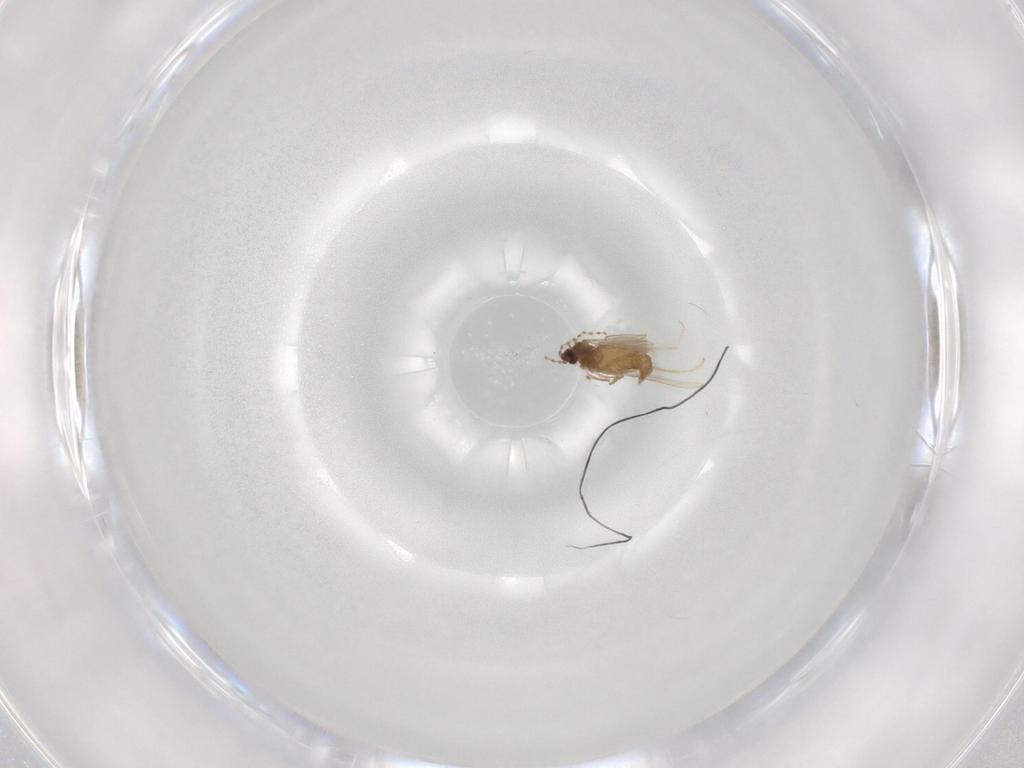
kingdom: Animalia
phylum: Arthropoda
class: Insecta
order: Diptera
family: Cecidomyiidae
